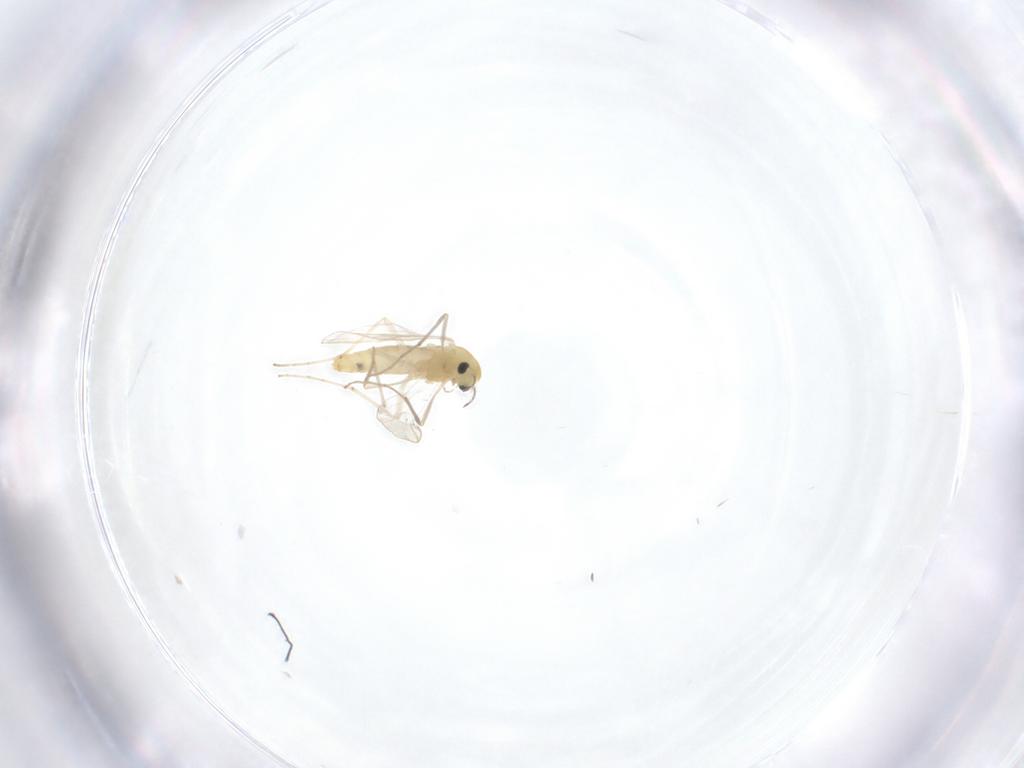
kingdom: Animalia
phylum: Arthropoda
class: Insecta
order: Diptera
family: Chironomidae
